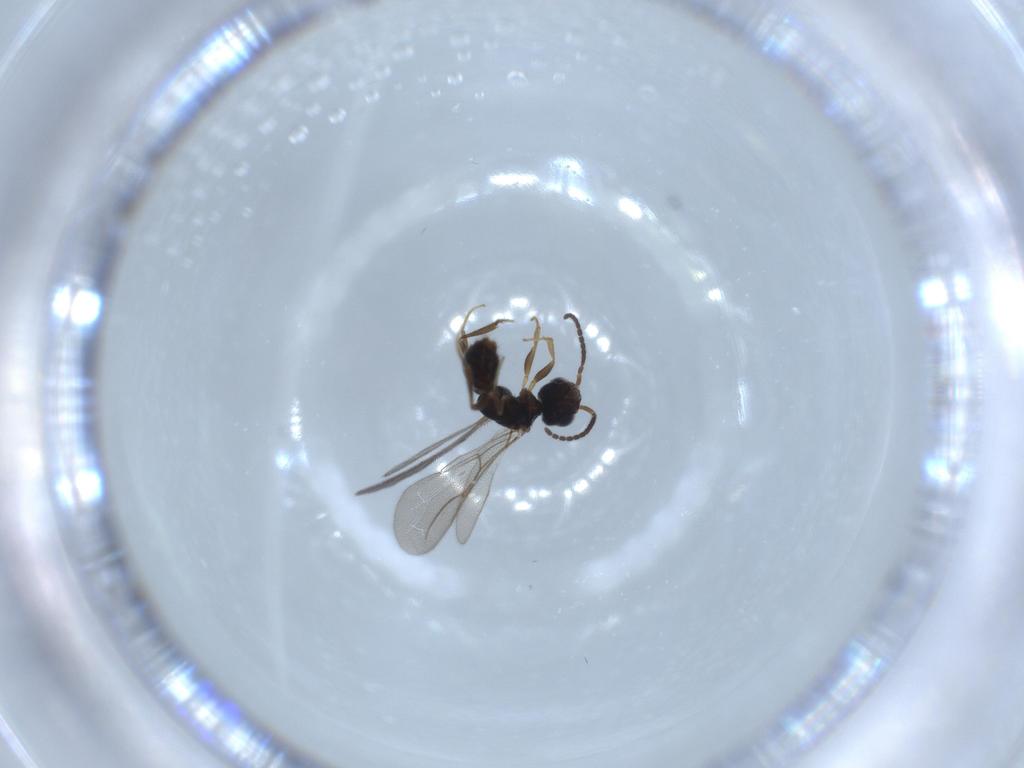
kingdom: Animalia
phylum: Arthropoda
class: Insecta
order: Hymenoptera
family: Bethylidae
